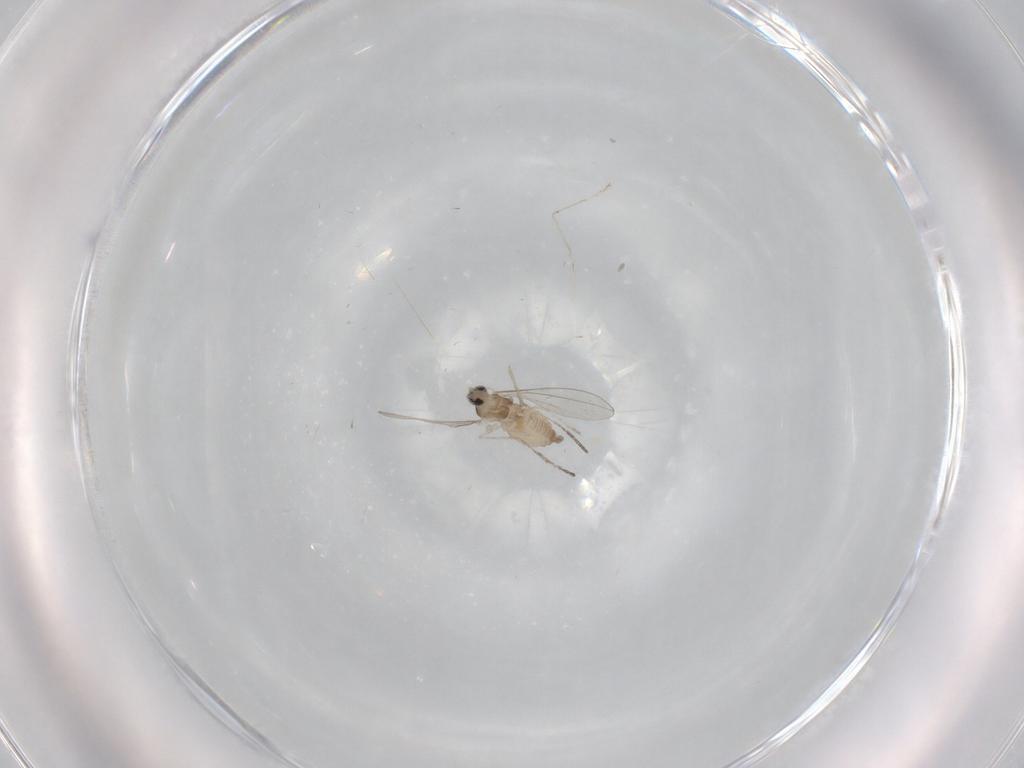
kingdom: Animalia
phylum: Arthropoda
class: Insecta
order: Diptera
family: Cecidomyiidae
